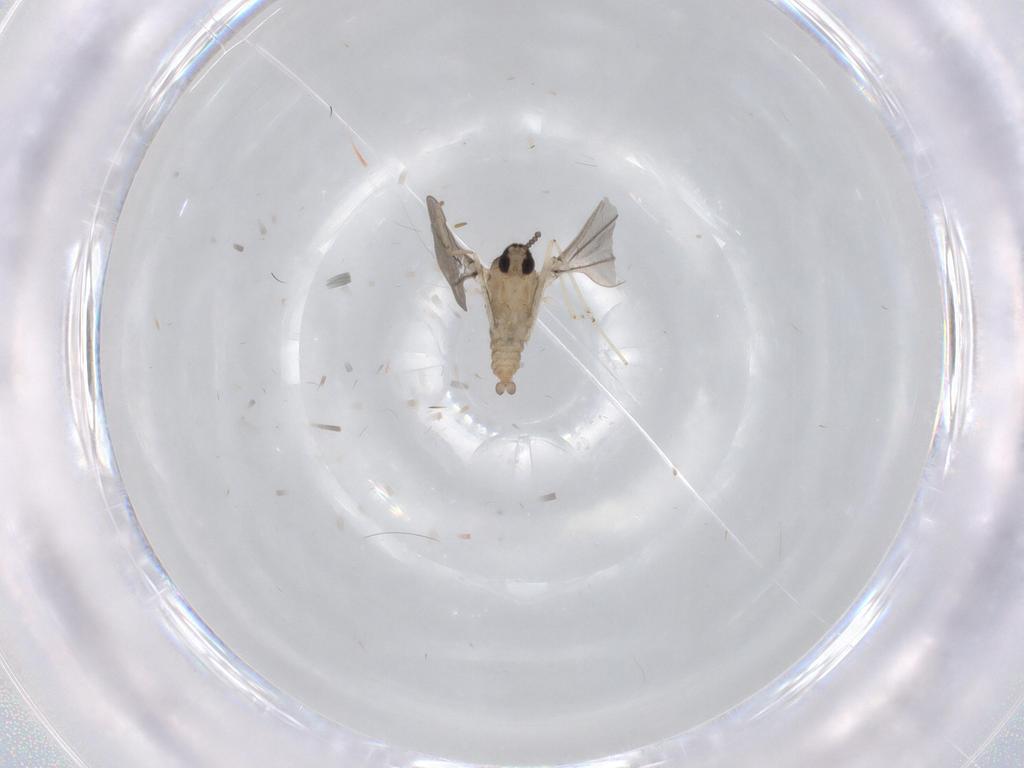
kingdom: Animalia
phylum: Arthropoda
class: Insecta
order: Diptera
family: Cecidomyiidae
